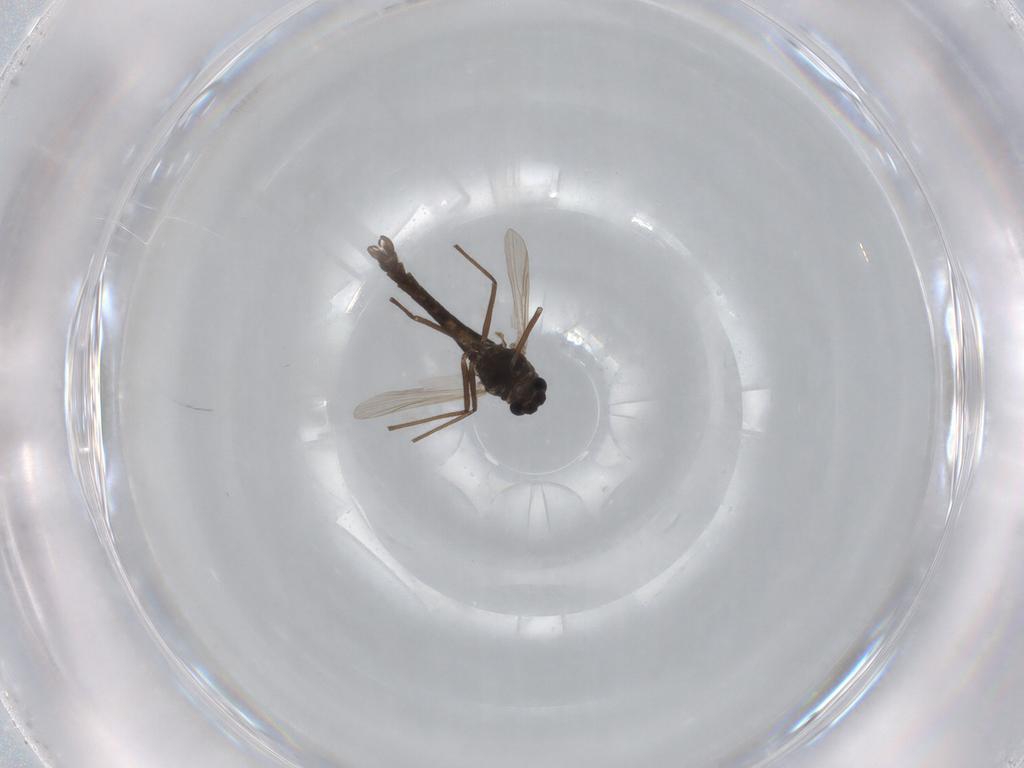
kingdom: Animalia
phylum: Arthropoda
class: Insecta
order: Diptera
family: Chironomidae
